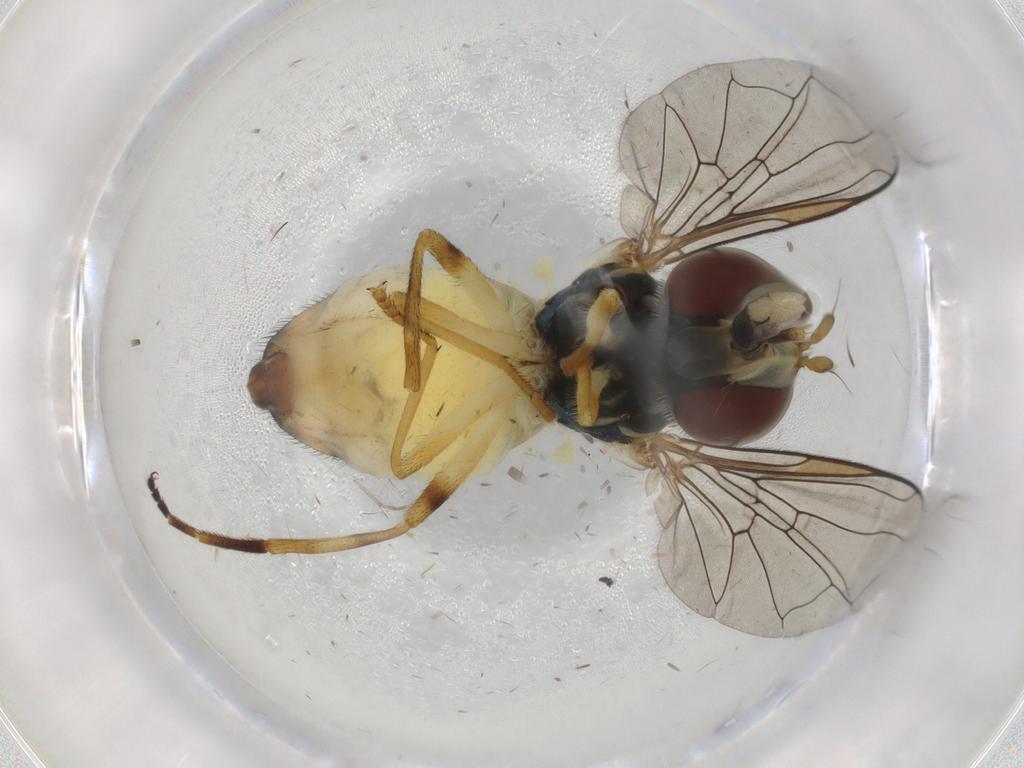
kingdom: Animalia
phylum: Arthropoda
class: Insecta
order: Diptera
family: Syrphidae
